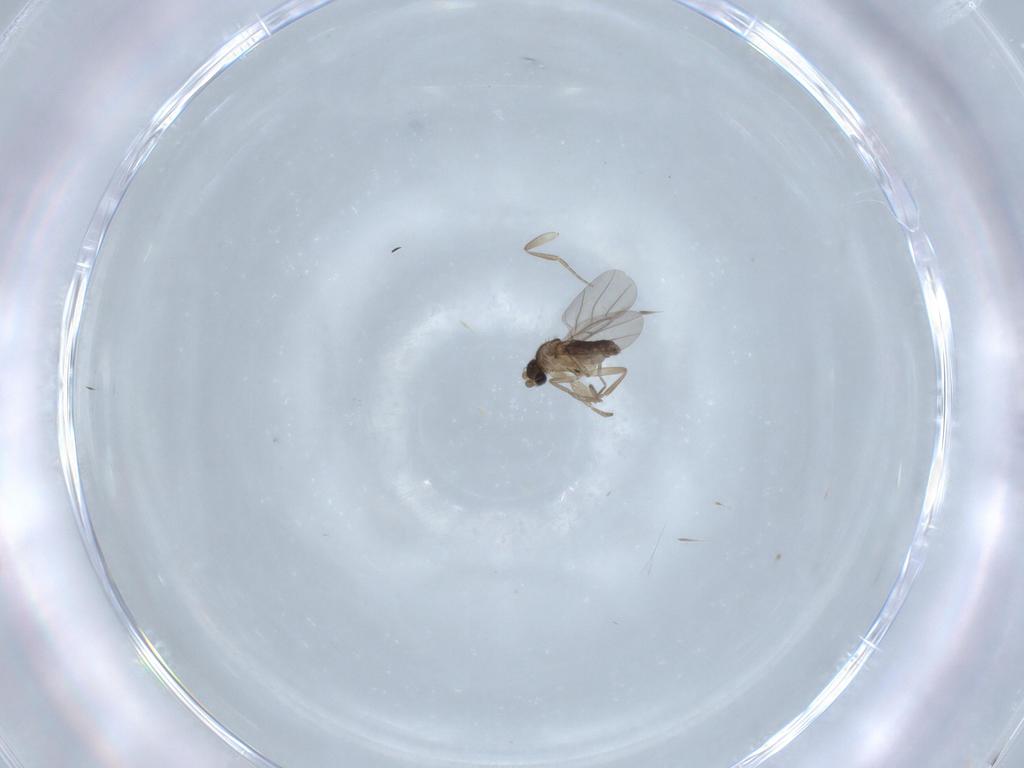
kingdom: Animalia
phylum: Arthropoda
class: Insecta
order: Diptera
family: Phoridae
